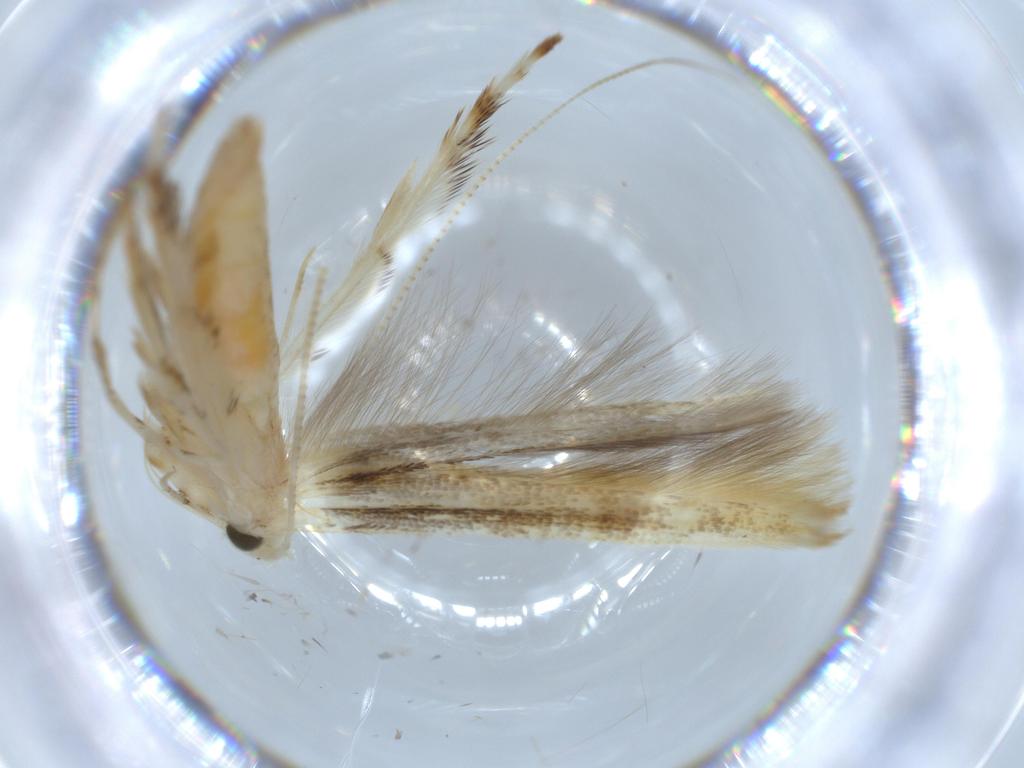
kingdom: Animalia
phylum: Arthropoda
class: Insecta
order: Lepidoptera
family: Gracillariidae
